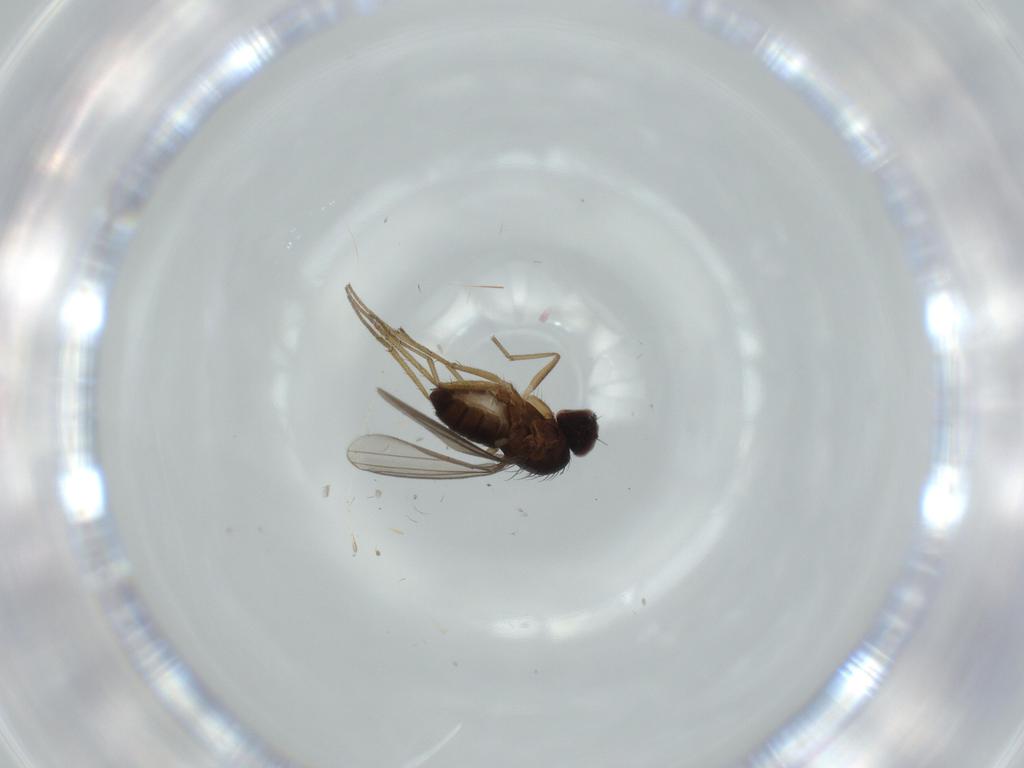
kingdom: Animalia
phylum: Arthropoda
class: Insecta
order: Diptera
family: Dolichopodidae
